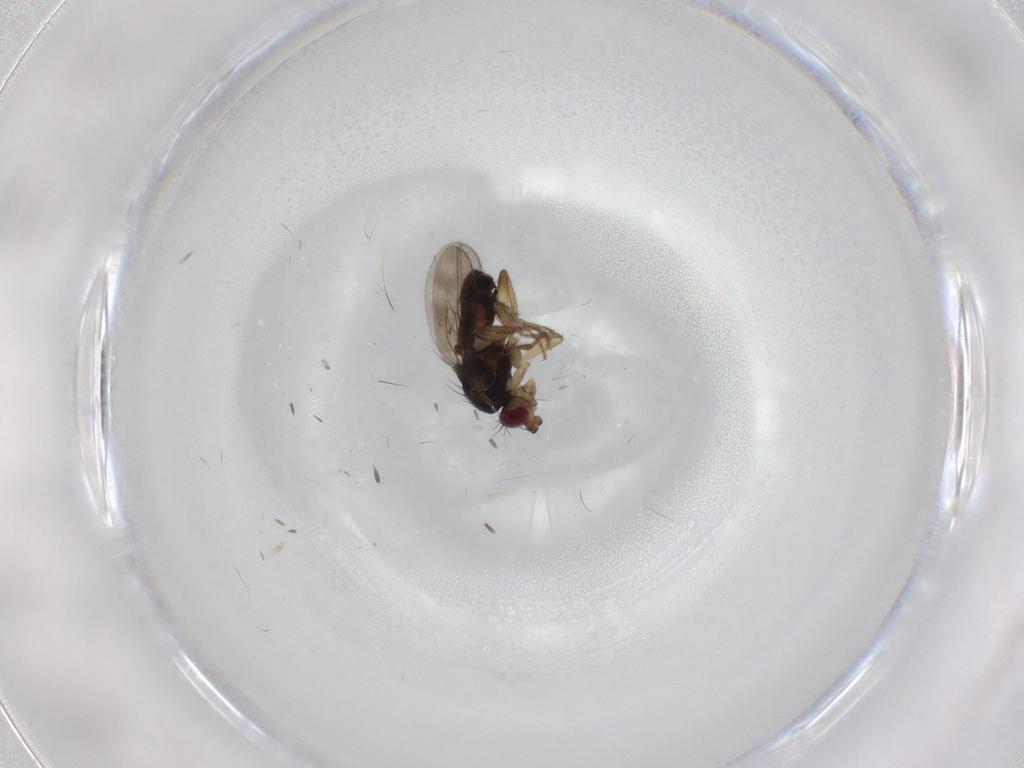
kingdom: Animalia
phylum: Arthropoda
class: Insecta
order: Diptera
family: Sphaeroceridae
